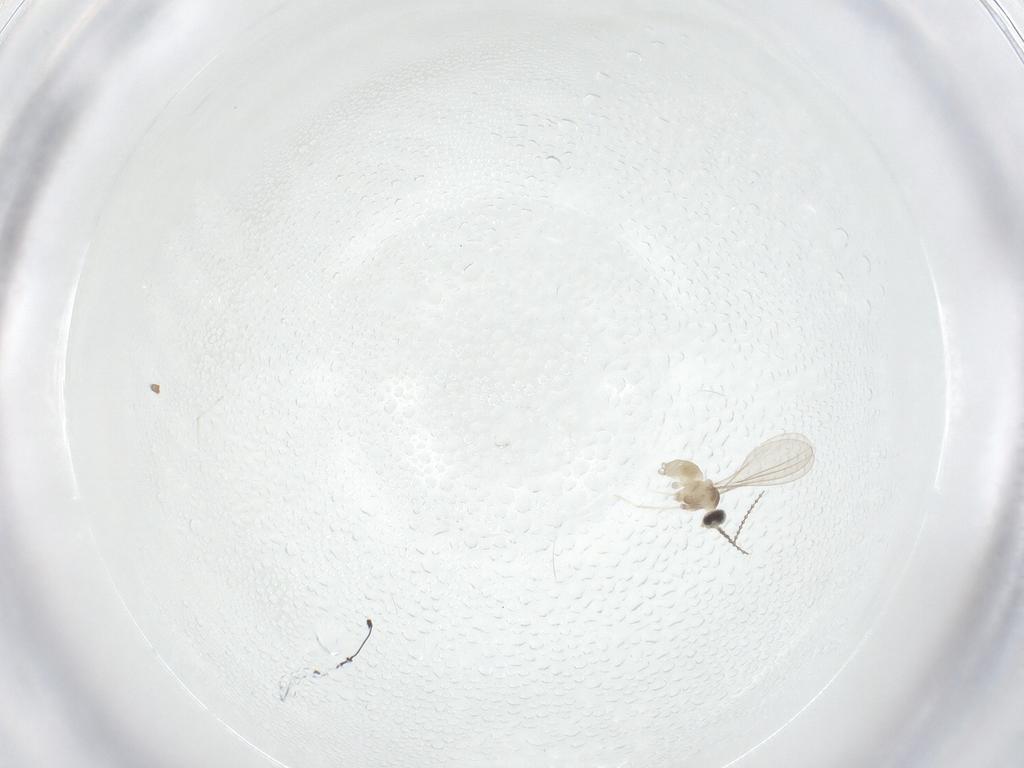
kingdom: Animalia
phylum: Arthropoda
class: Insecta
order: Diptera
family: Cecidomyiidae
